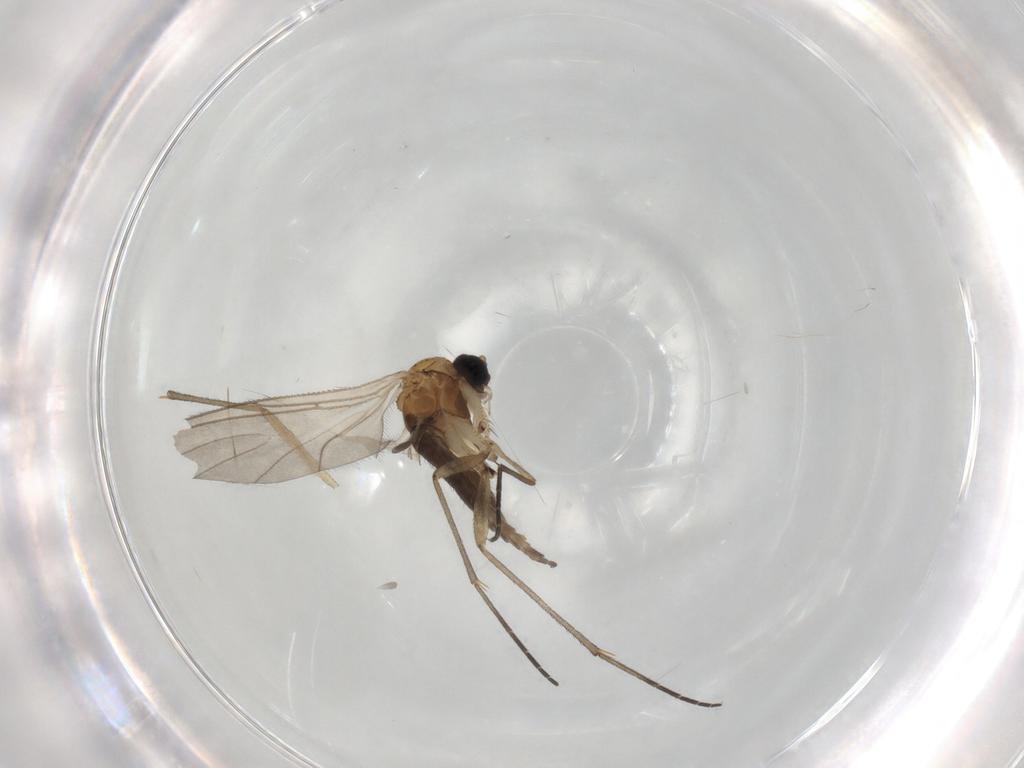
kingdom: Animalia
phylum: Arthropoda
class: Insecta
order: Diptera
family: Sciaridae
